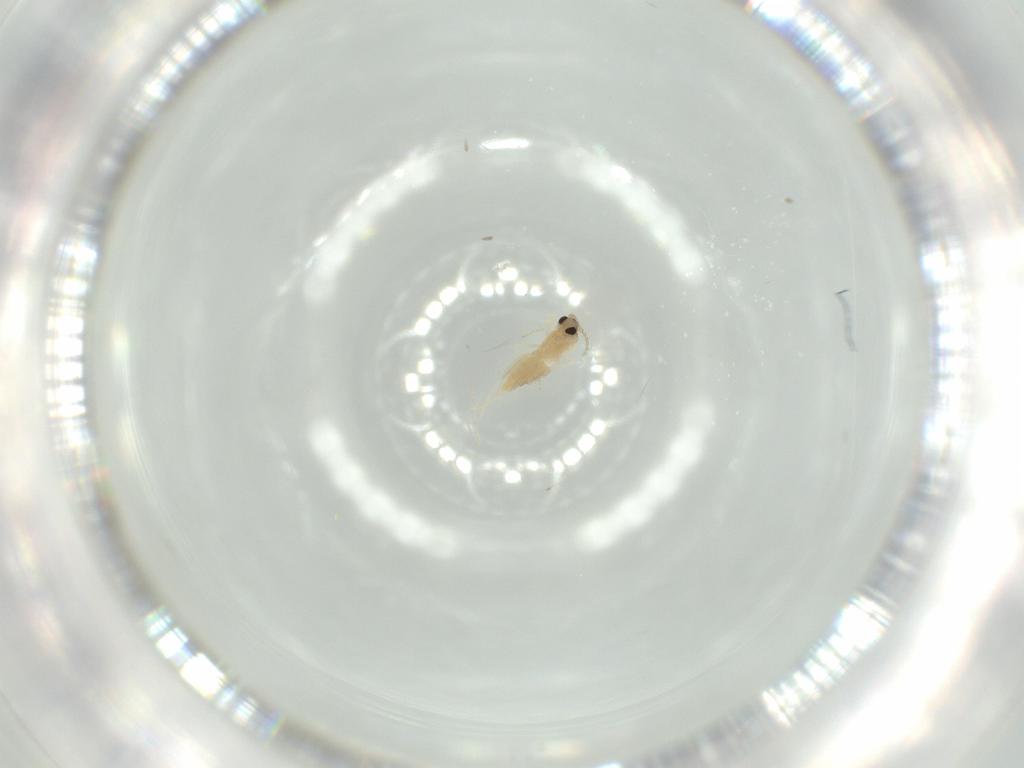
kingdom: Animalia
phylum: Arthropoda
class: Insecta
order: Diptera
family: Cecidomyiidae
